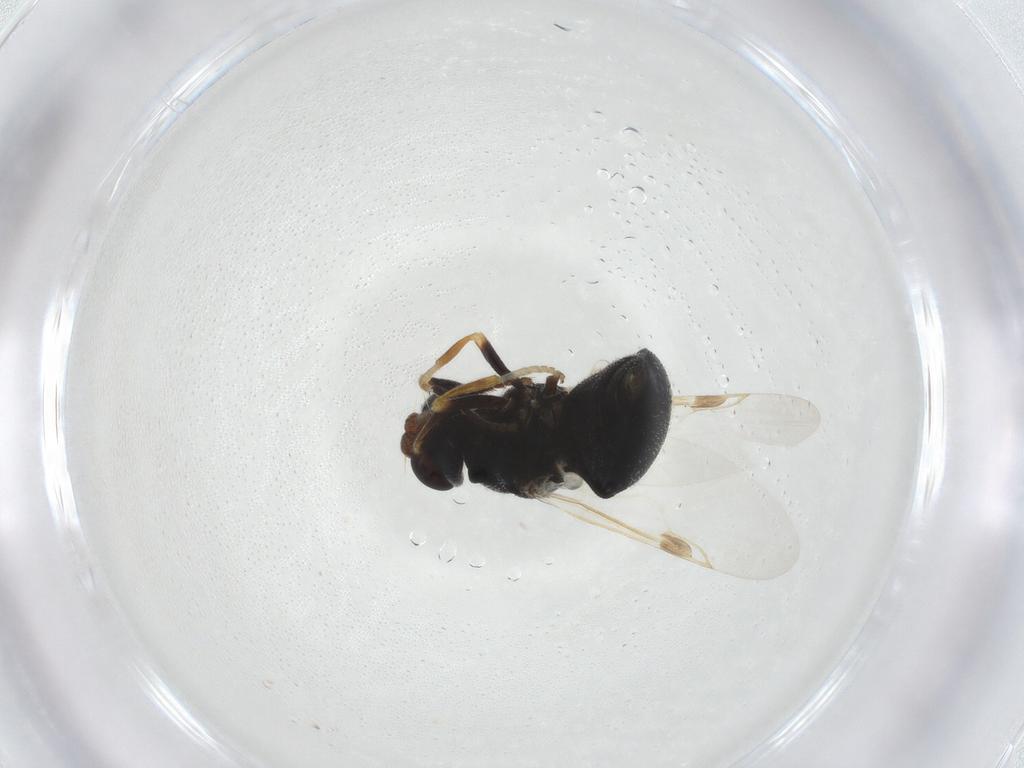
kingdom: Animalia
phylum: Arthropoda
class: Insecta
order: Diptera
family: Stratiomyidae
